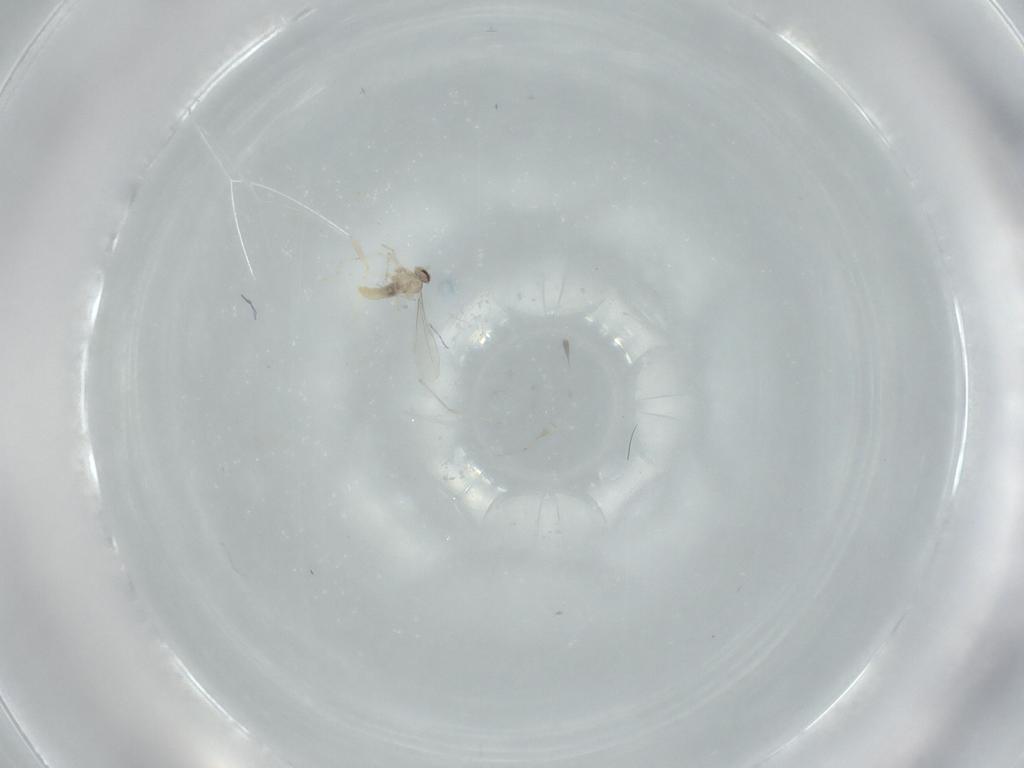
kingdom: Animalia
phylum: Arthropoda
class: Insecta
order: Diptera
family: Cecidomyiidae
